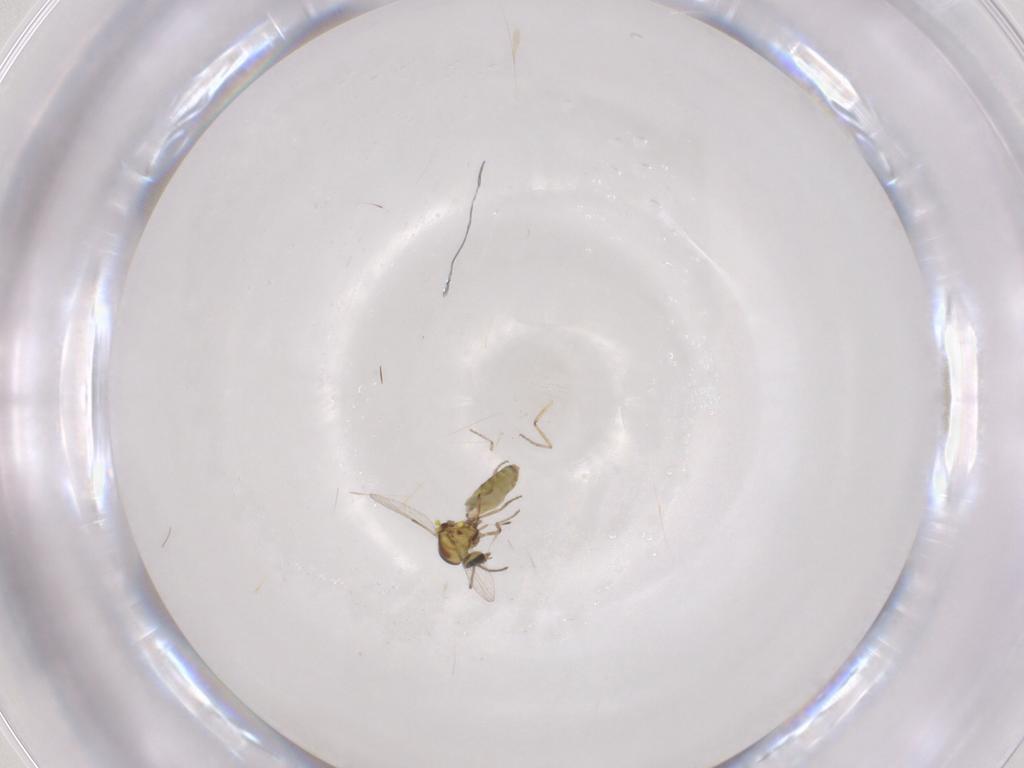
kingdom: Animalia
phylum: Arthropoda
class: Insecta
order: Diptera
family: Ceratopogonidae
